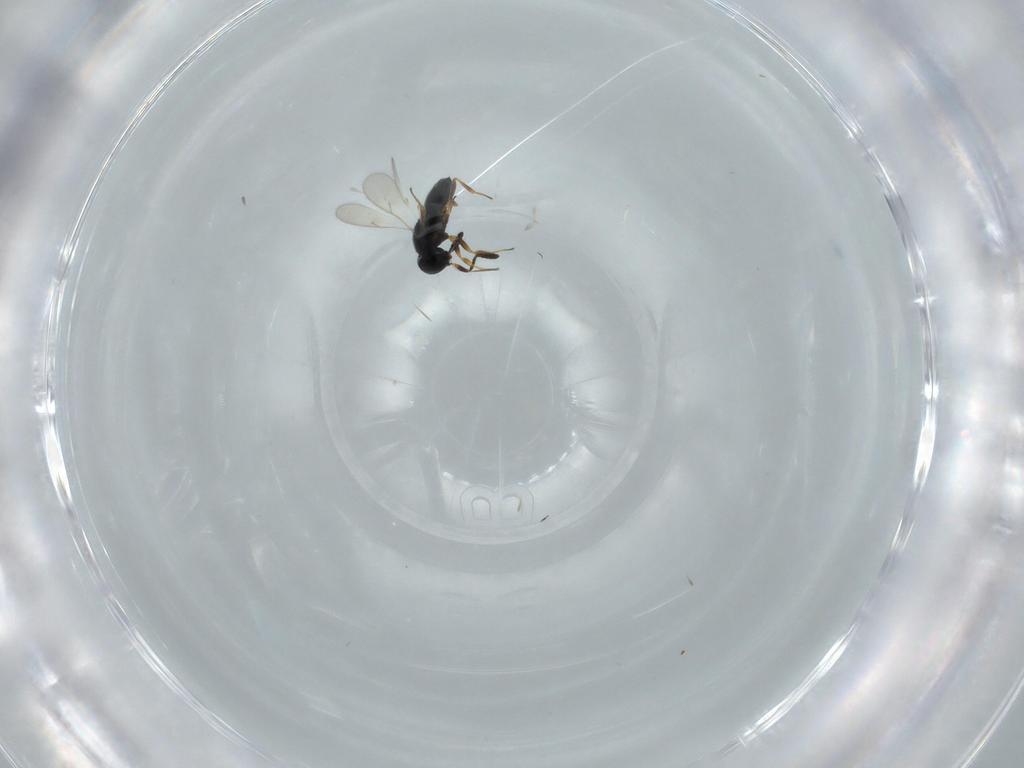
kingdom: Animalia
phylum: Arthropoda
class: Insecta
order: Hymenoptera
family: Scelionidae
